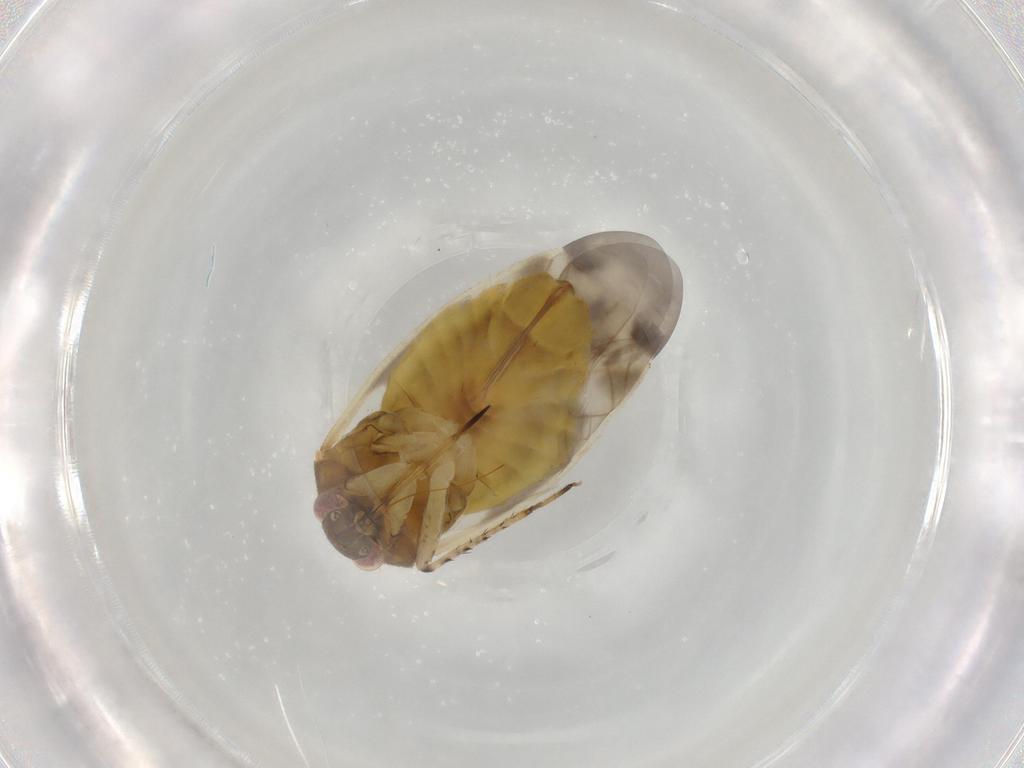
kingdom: Animalia
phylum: Arthropoda
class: Insecta
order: Hemiptera
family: Miridae
